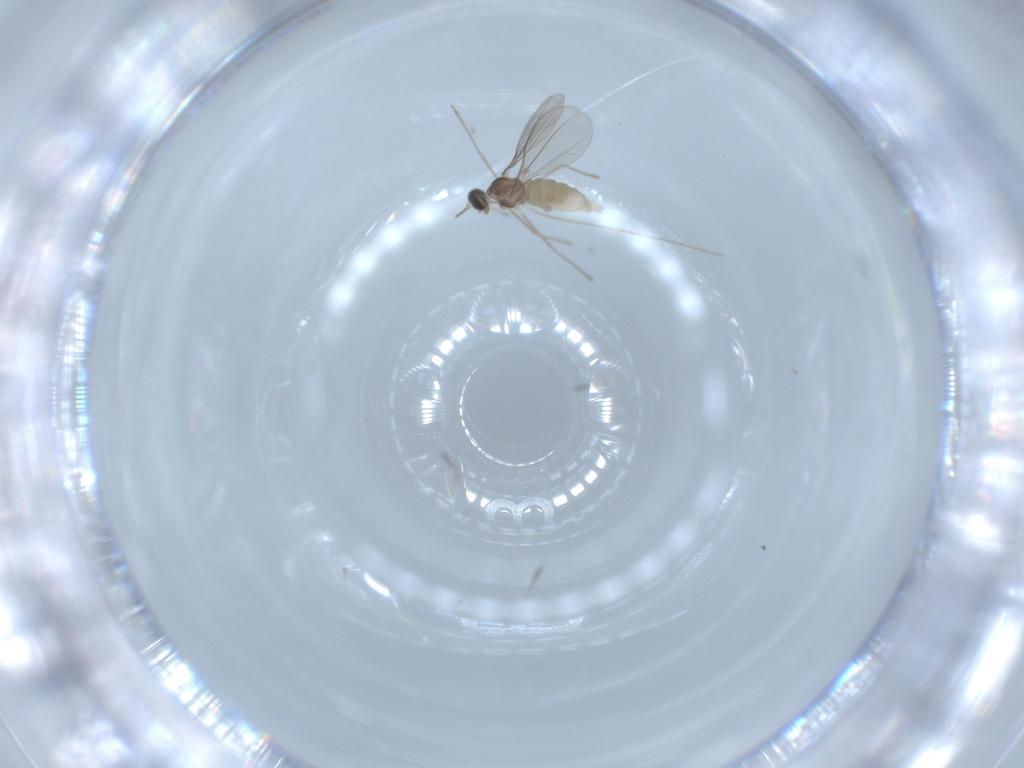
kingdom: Animalia
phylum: Arthropoda
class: Insecta
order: Diptera
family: Cecidomyiidae
